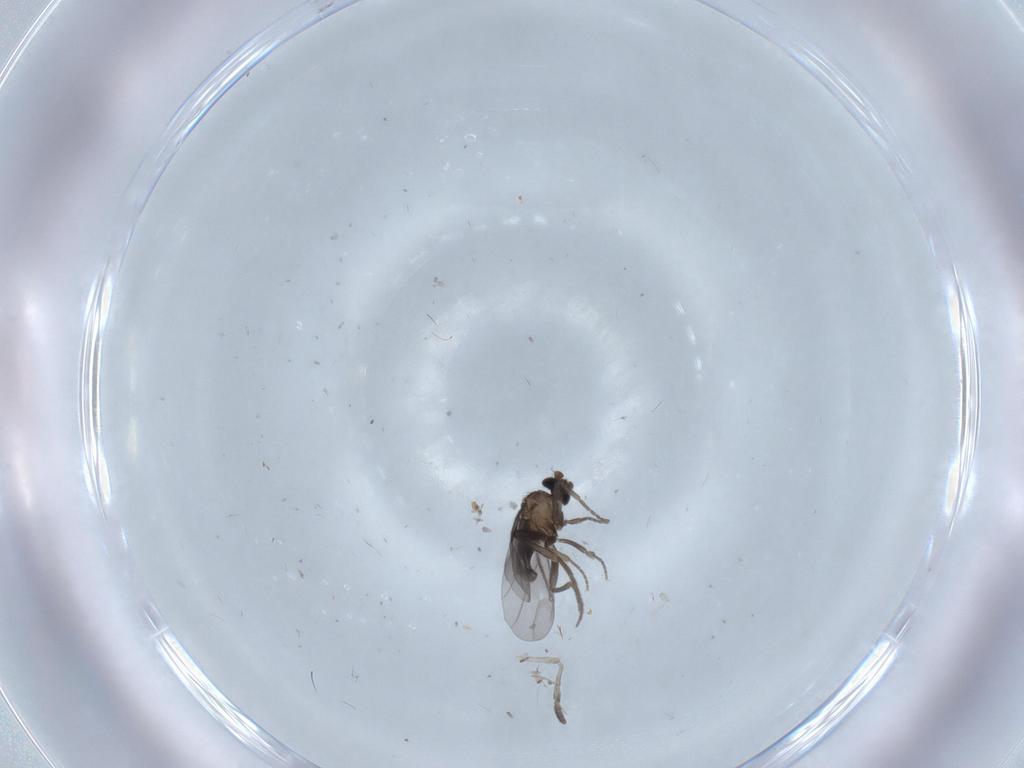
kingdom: Animalia
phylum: Arthropoda
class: Insecta
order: Diptera
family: Phoridae
